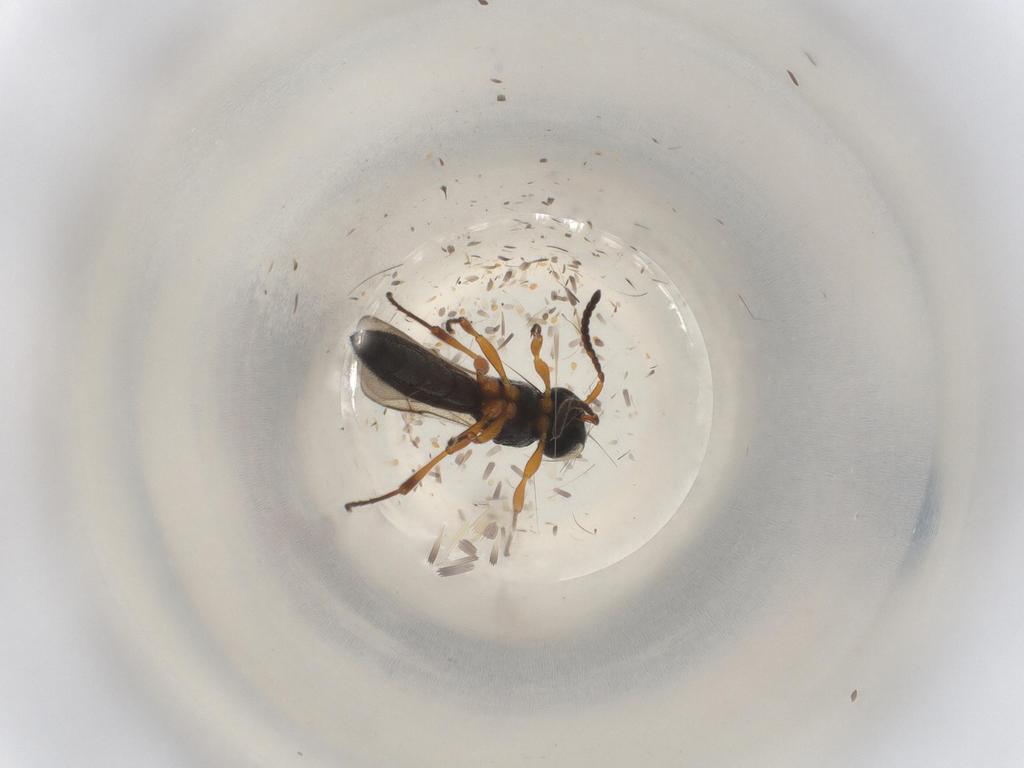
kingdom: Animalia
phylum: Arthropoda
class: Insecta
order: Hymenoptera
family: Scelionidae
